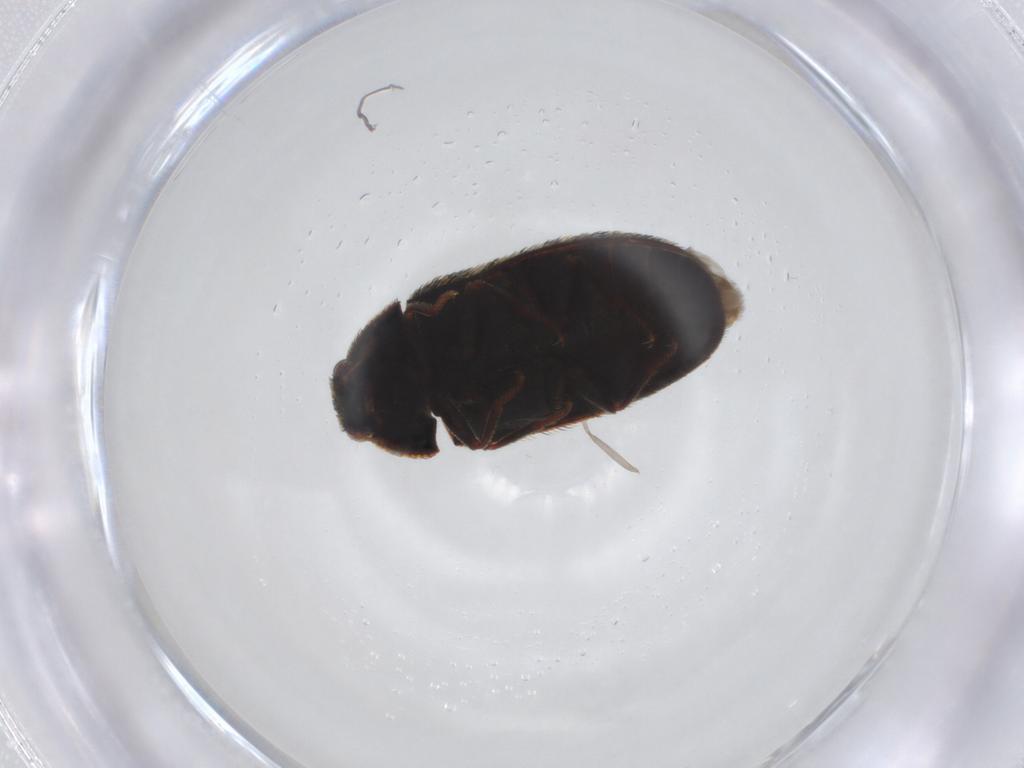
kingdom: Animalia
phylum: Arthropoda
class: Insecta
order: Coleoptera
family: Dermestidae
